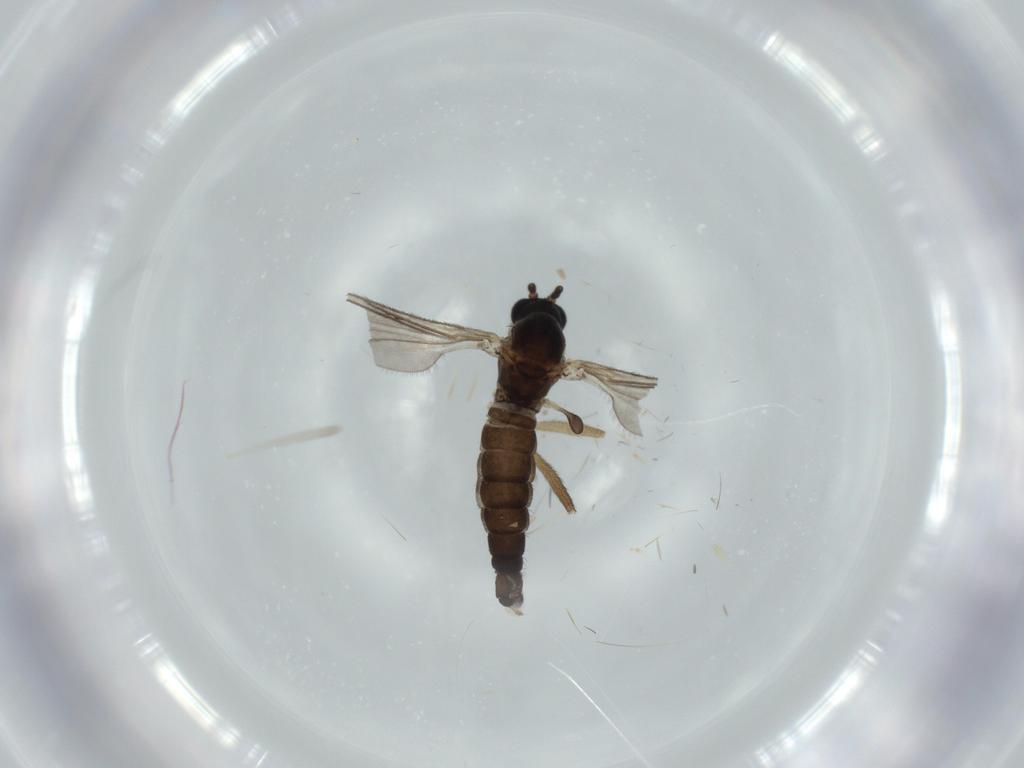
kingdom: Animalia
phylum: Arthropoda
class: Insecta
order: Diptera
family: Sciaridae
